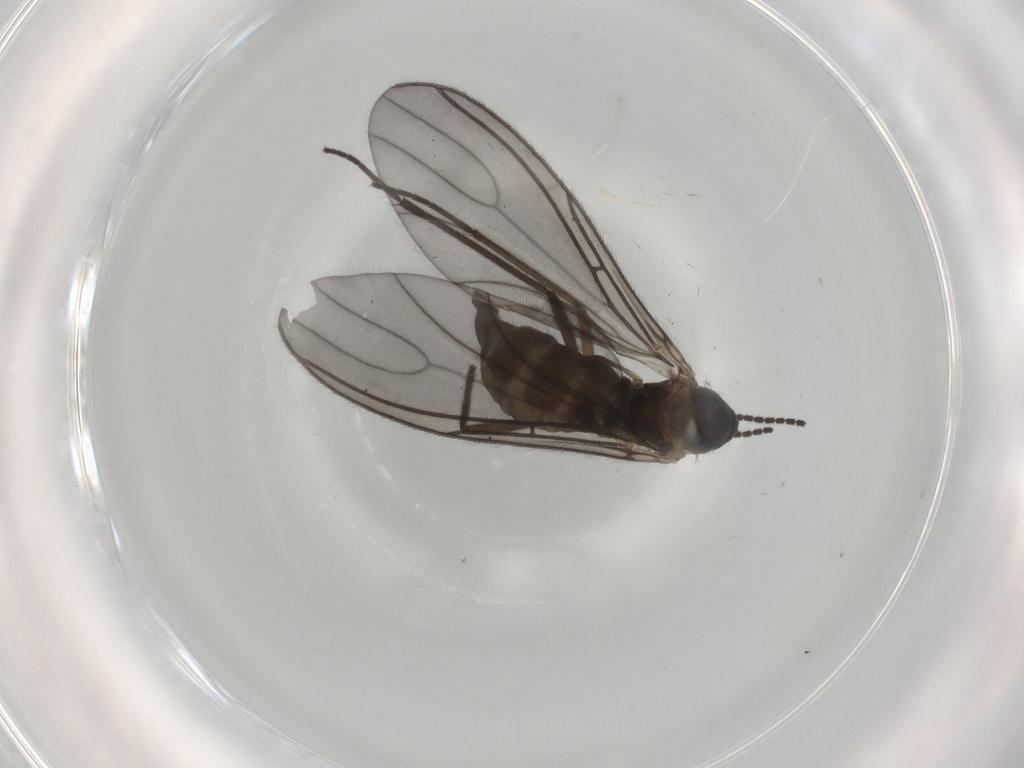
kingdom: Animalia
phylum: Arthropoda
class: Insecta
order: Diptera
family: Sciaridae
